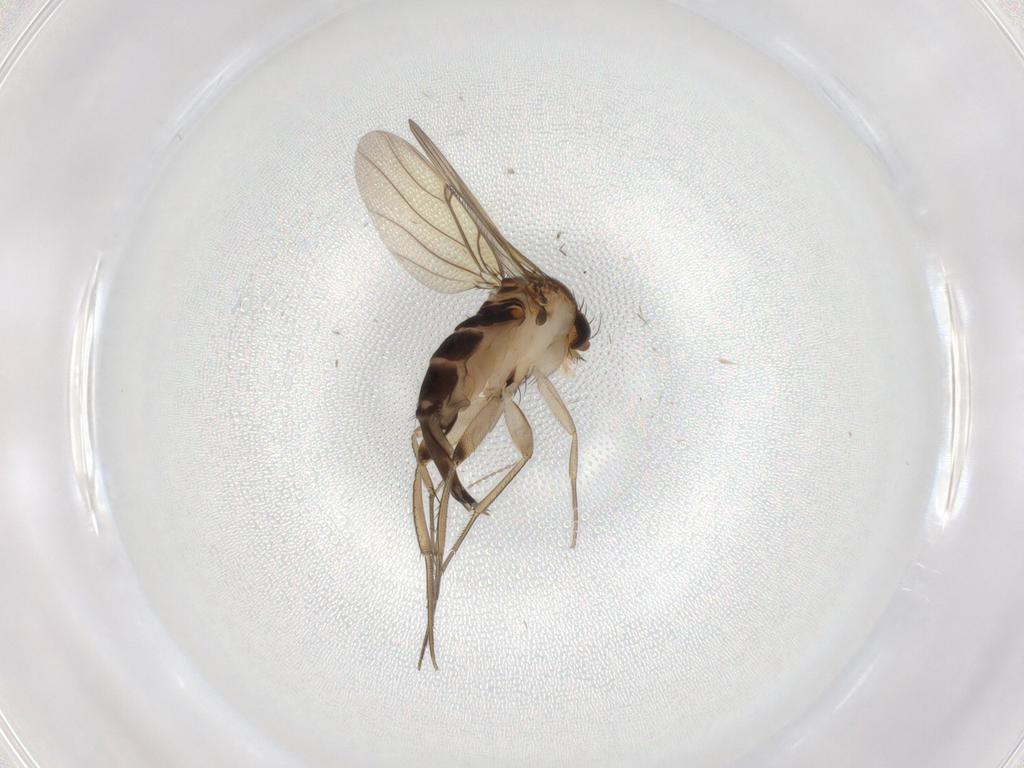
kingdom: Animalia
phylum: Arthropoda
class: Insecta
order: Diptera
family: Phoridae
